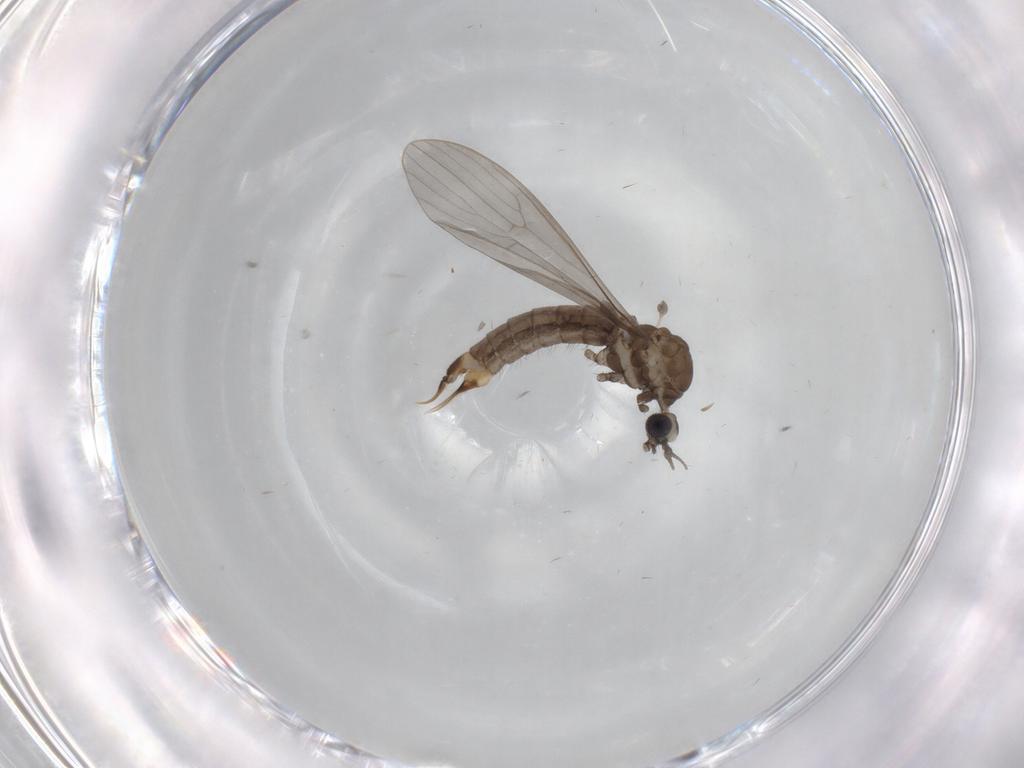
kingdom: Animalia
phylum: Arthropoda
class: Insecta
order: Diptera
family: Limoniidae
